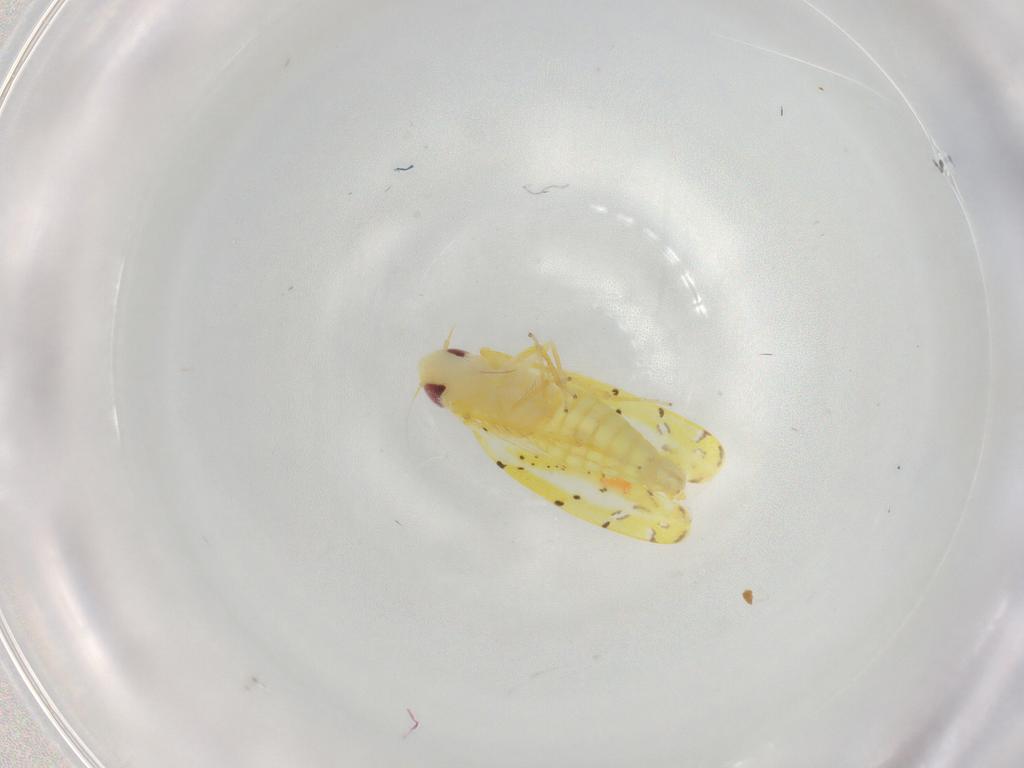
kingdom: Animalia
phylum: Arthropoda
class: Insecta
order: Hemiptera
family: Cicadellidae
